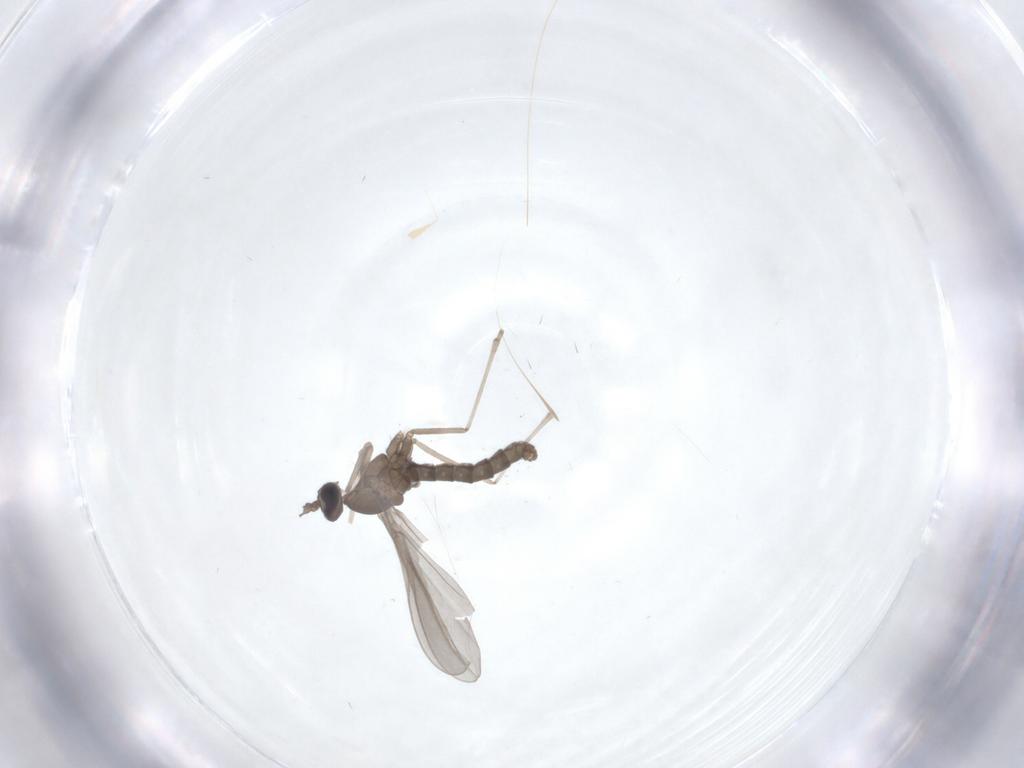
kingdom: Animalia
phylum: Arthropoda
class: Insecta
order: Diptera
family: Cecidomyiidae
